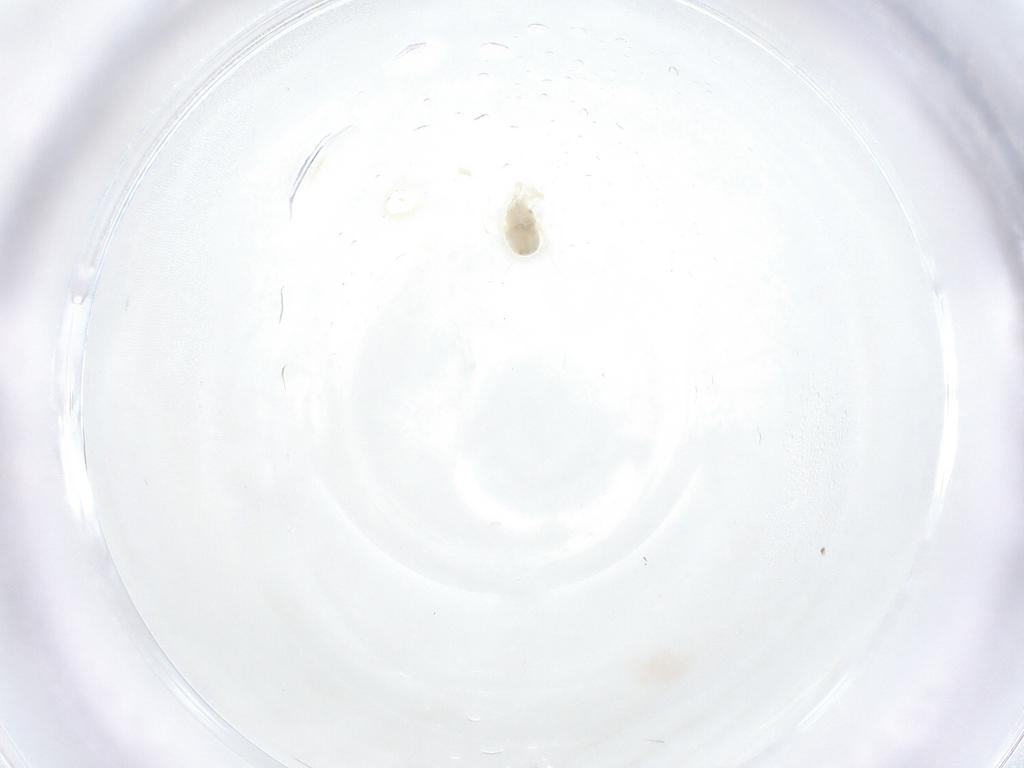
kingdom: Animalia
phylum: Arthropoda
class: Arachnida
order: Trombidiformes
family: Anystidae
